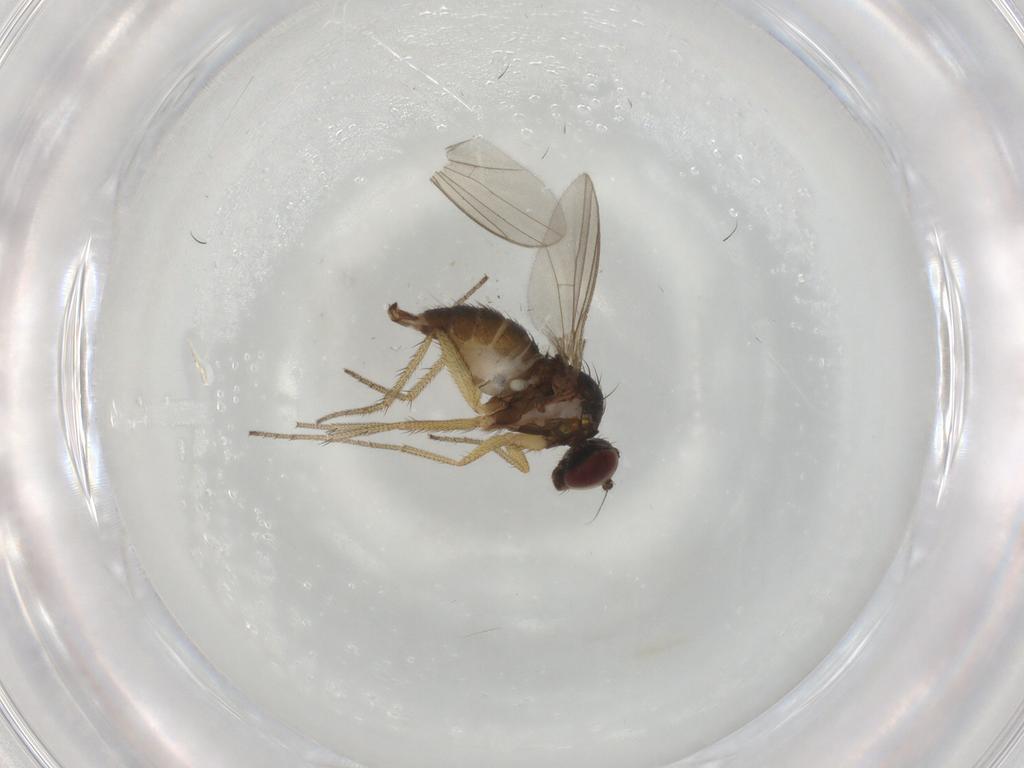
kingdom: Animalia
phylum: Arthropoda
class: Insecta
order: Diptera
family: Dolichopodidae
